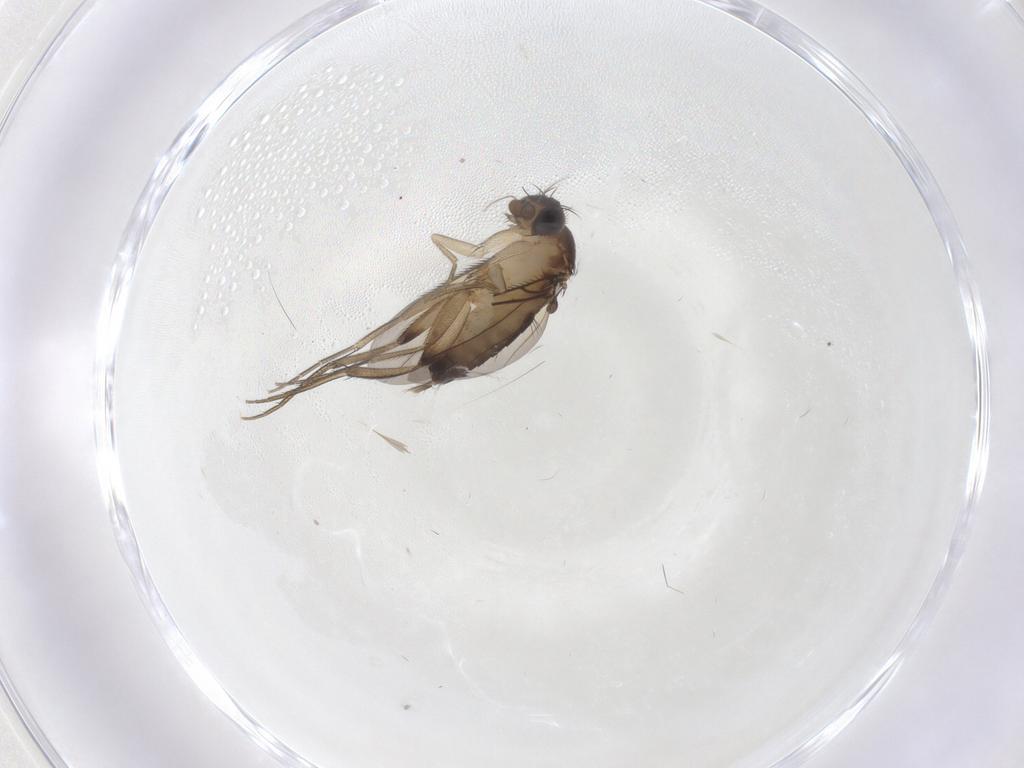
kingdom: Animalia
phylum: Arthropoda
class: Insecta
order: Diptera
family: Phoridae
